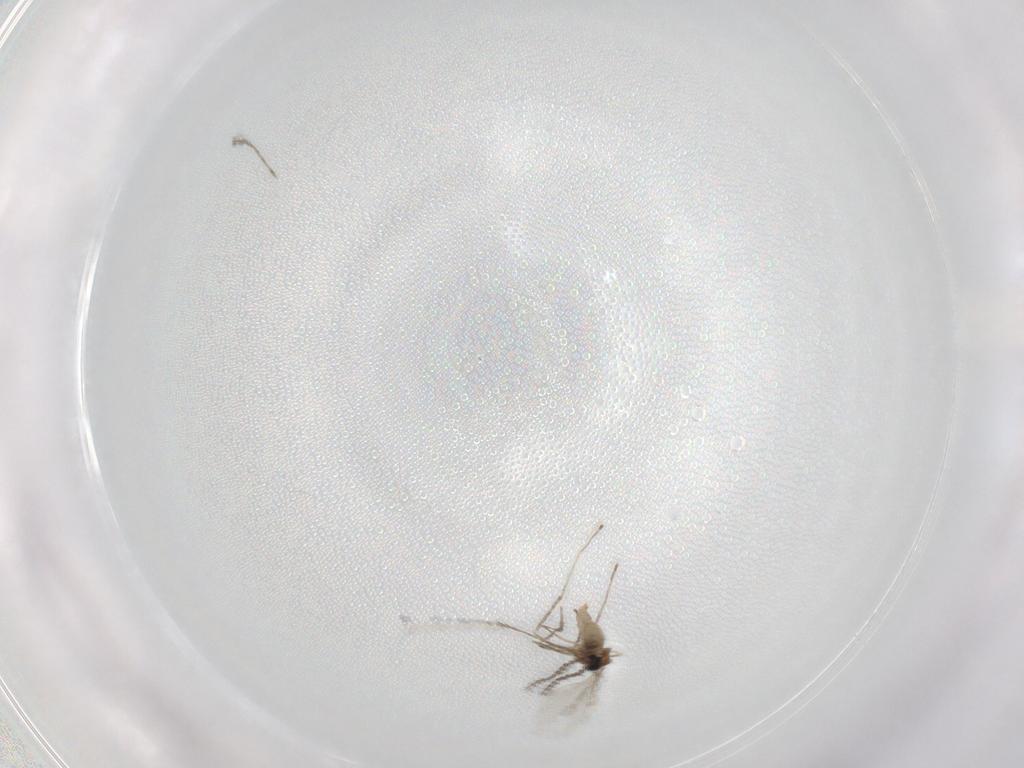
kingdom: Animalia
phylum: Arthropoda
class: Insecta
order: Diptera
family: Cecidomyiidae
